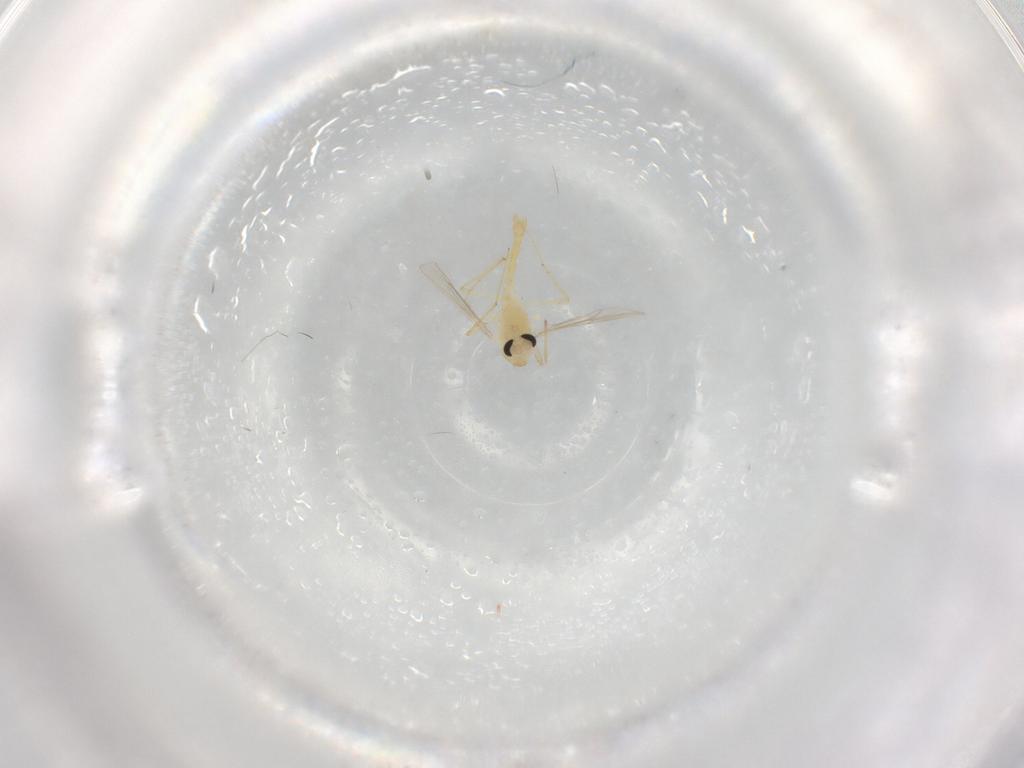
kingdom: Animalia
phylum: Arthropoda
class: Insecta
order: Diptera
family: Chironomidae
